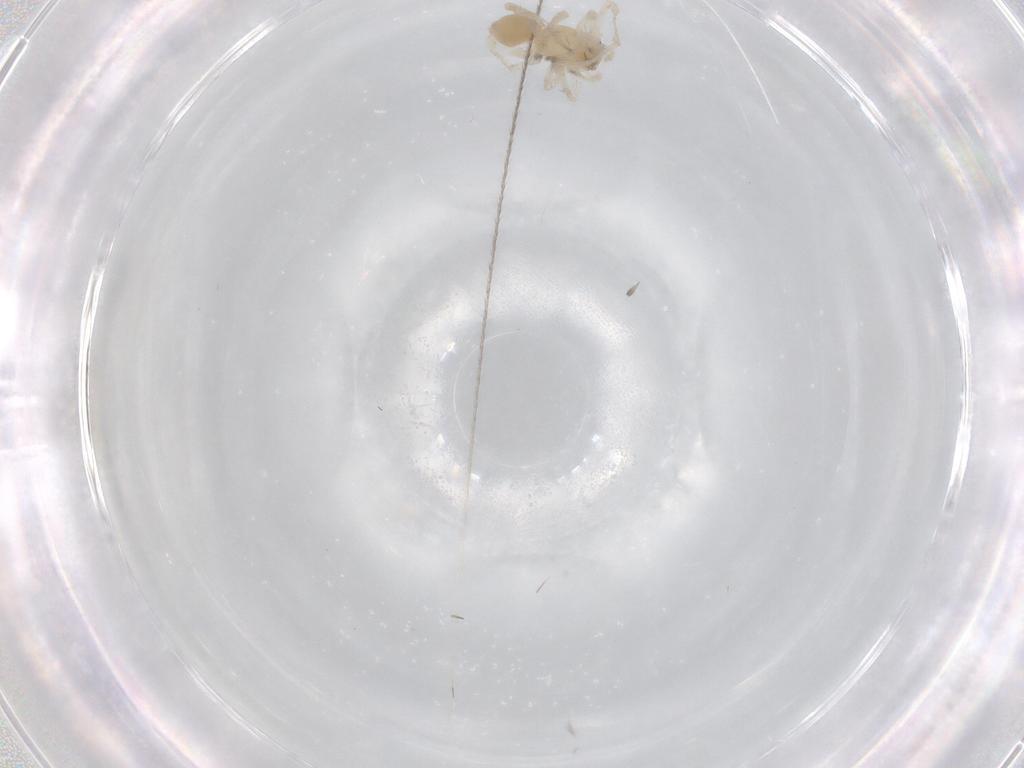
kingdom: Animalia
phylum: Arthropoda
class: Arachnida
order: Araneae
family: Anyphaenidae
